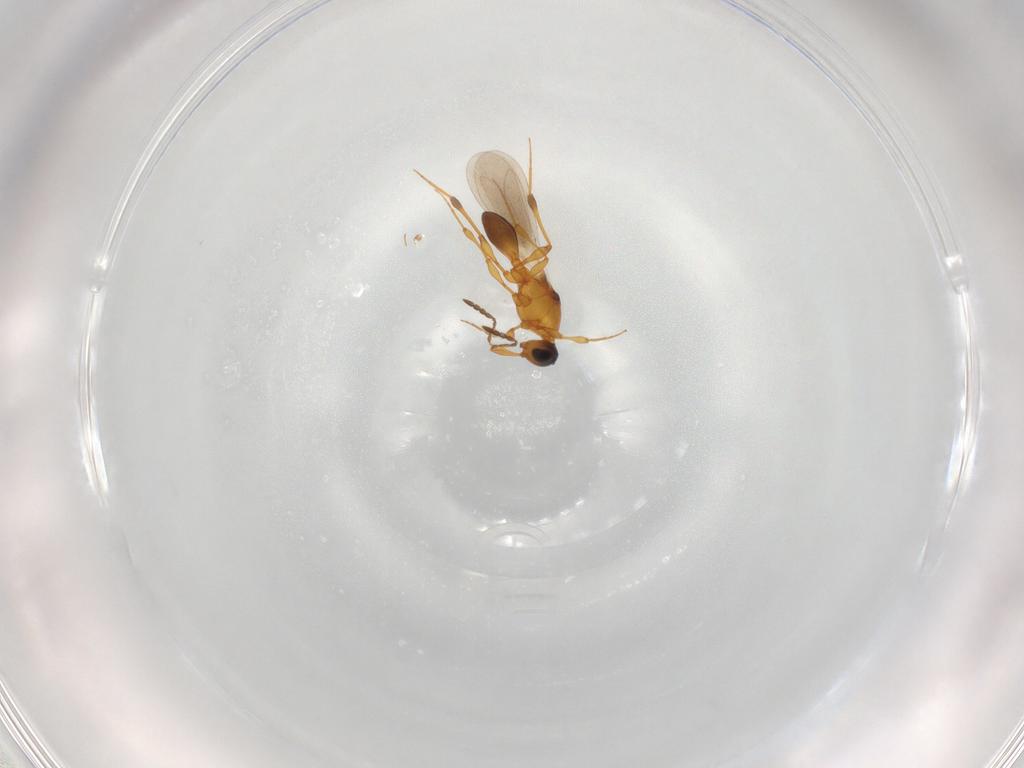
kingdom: Animalia
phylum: Arthropoda
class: Insecta
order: Hymenoptera
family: Platygastridae
